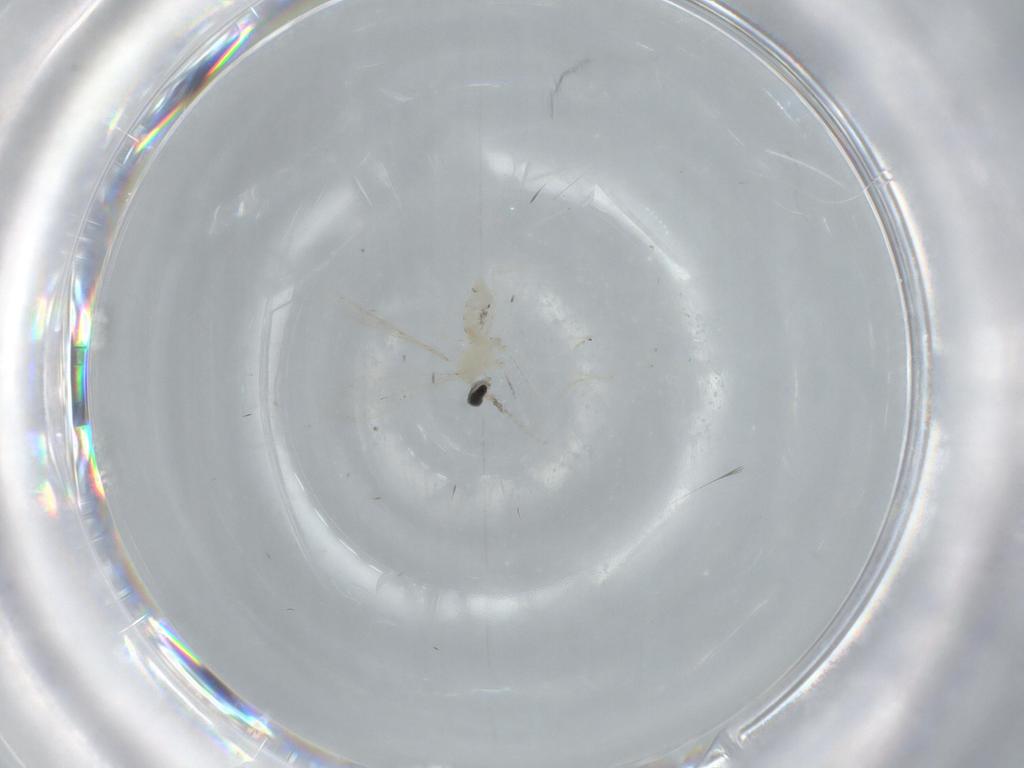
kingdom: Animalia
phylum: Arthropoda
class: Insecta
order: Diptera
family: Cecidomyiidae
